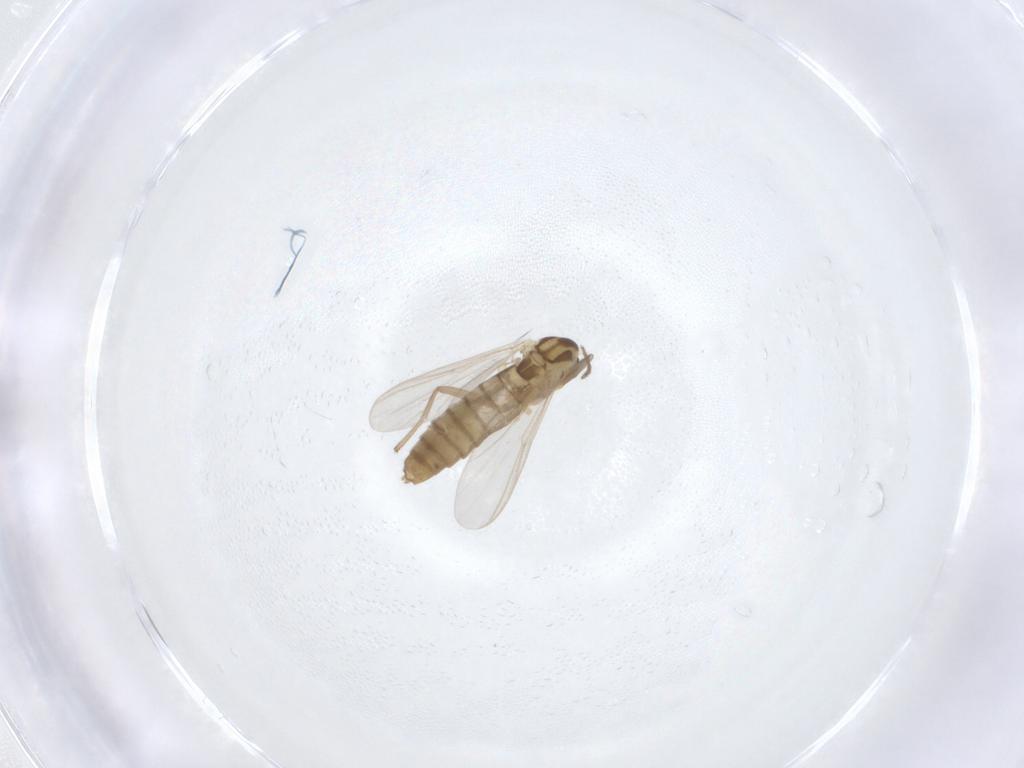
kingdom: Animalia
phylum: Arthropoda
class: Insecta
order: Diptera
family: Chironomidae
